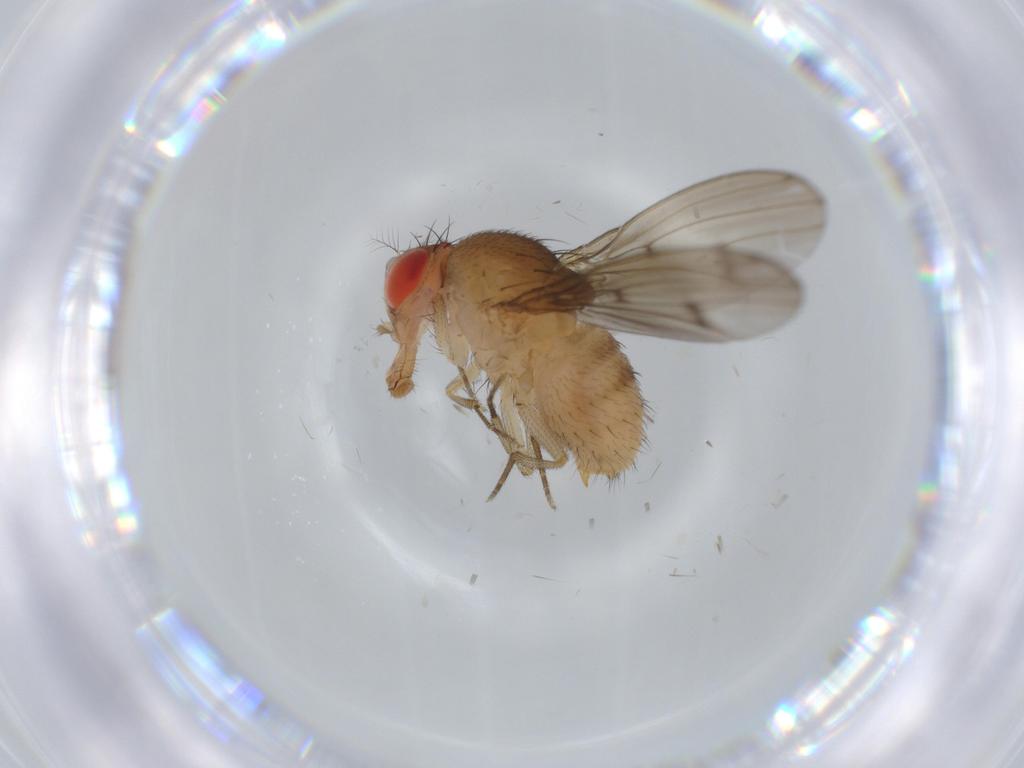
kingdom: Animalia
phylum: Arthropoda
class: Insecta
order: Diptera
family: Drosophilidae
